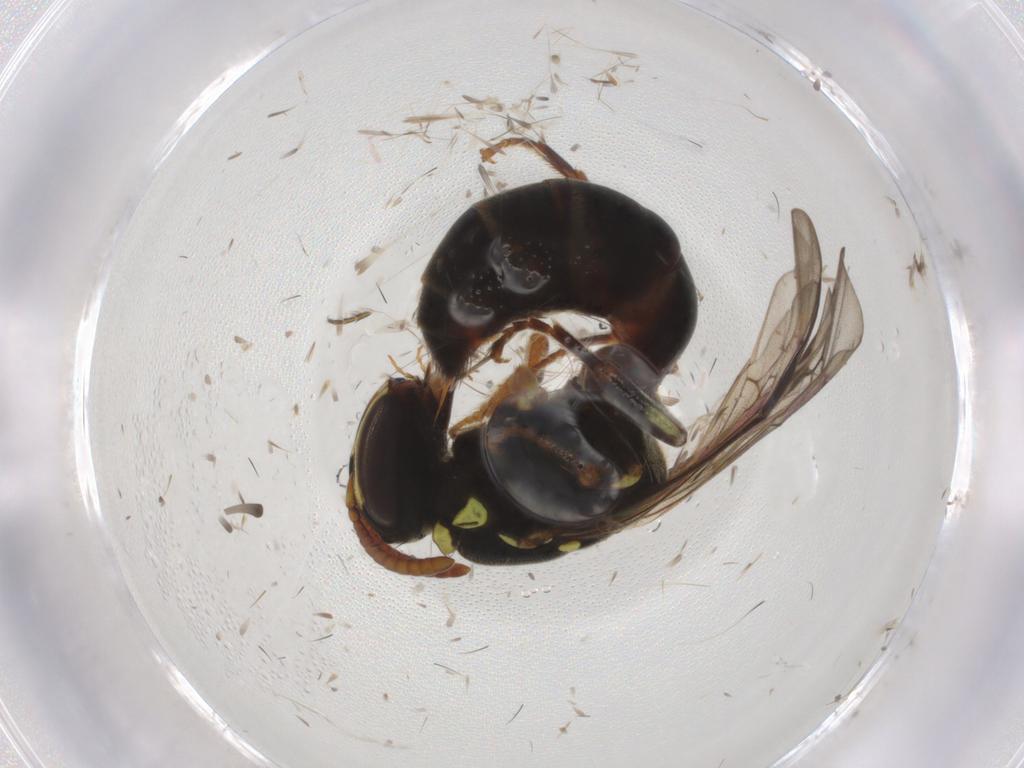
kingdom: Animalia
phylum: Arthropoda
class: Insecta
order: Hymenoptera
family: Colletidae
